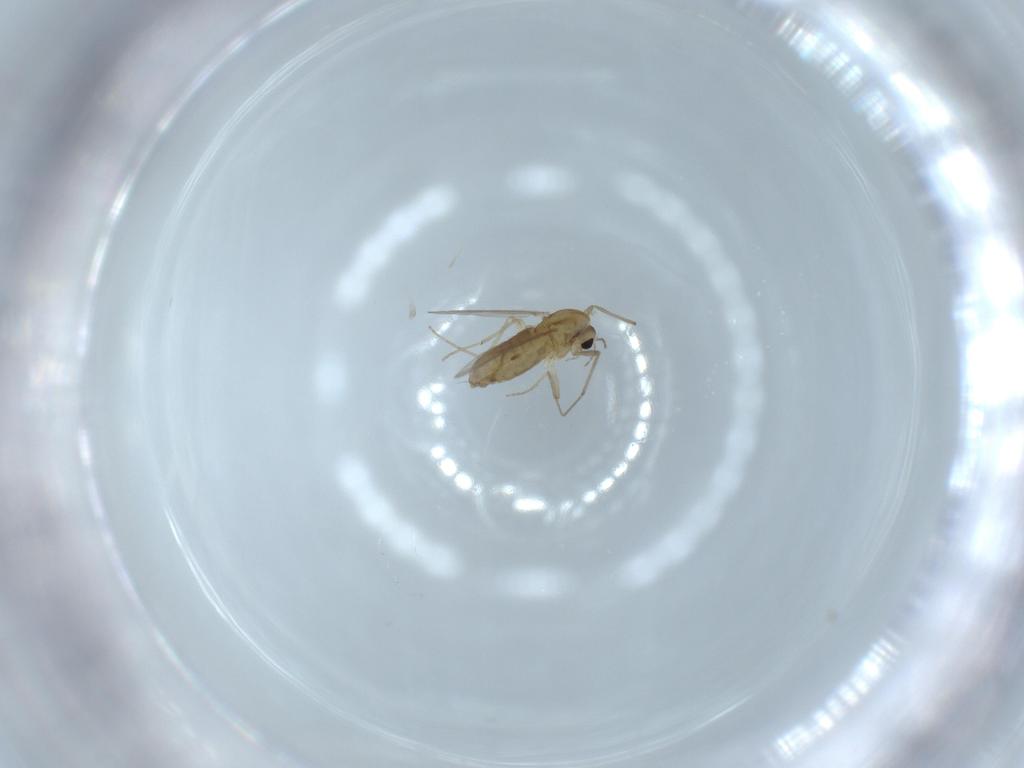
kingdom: Animalia
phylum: Arthropoda
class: Insecta
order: Diptera
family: Chironomidae
